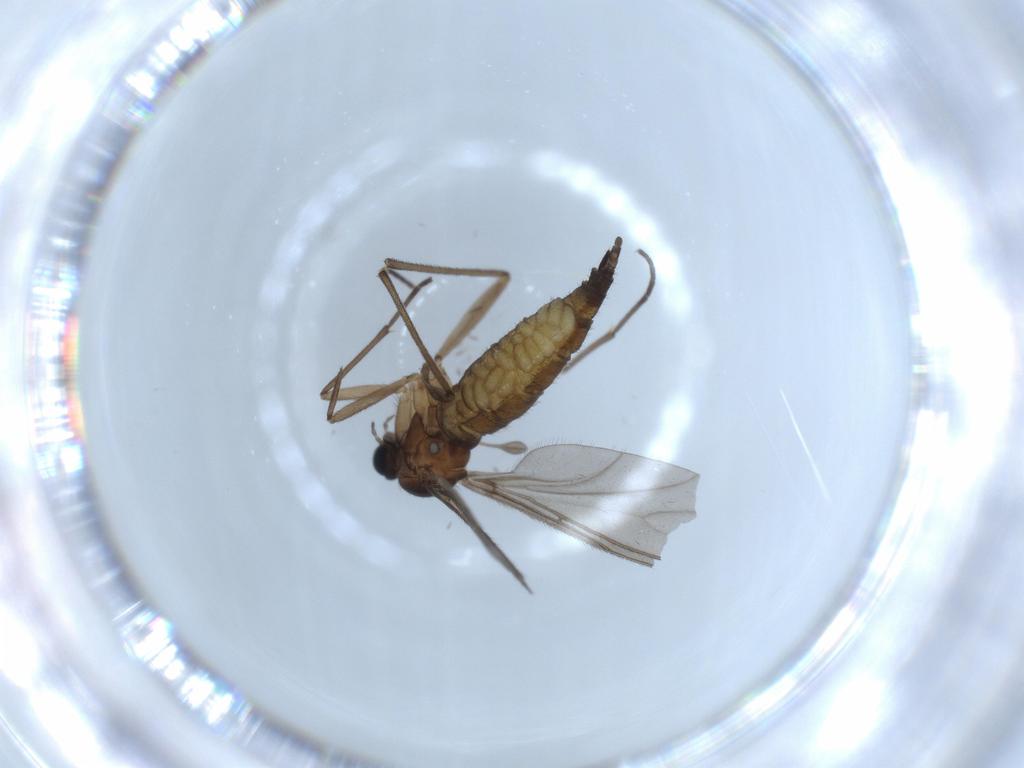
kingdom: Animalia
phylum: Arthropoda
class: Insecta
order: Diptera
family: Sciaridae
